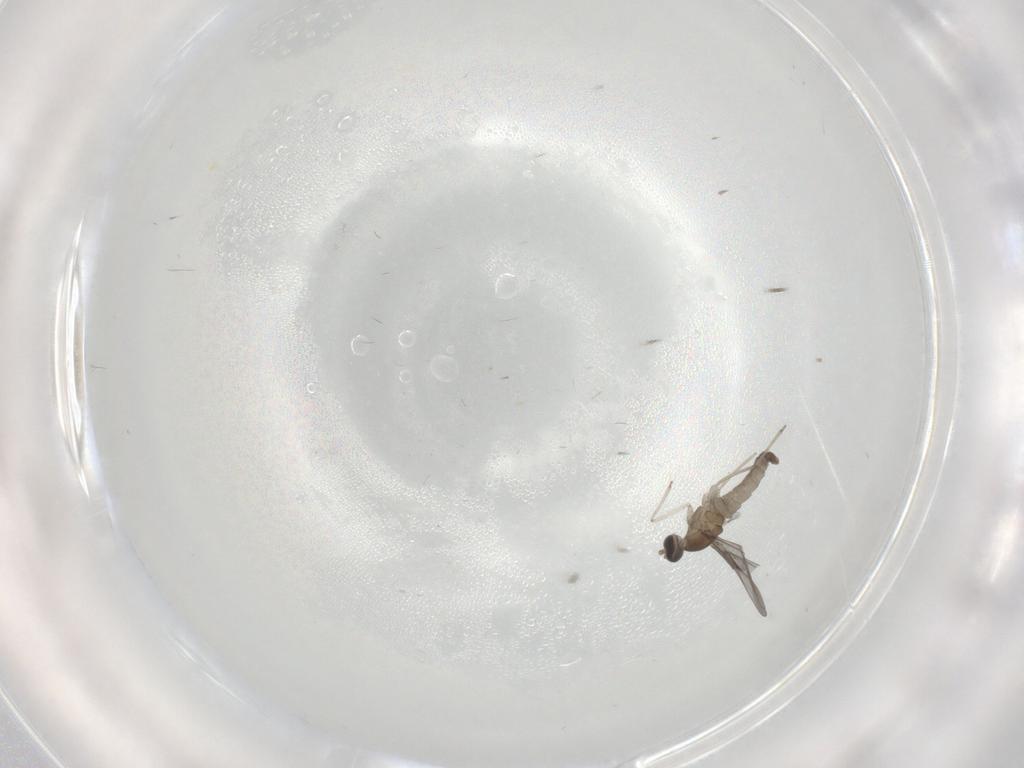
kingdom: Animalia
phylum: Arthropoda
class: Insecta
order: Diptera
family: Cecidomyiidae
